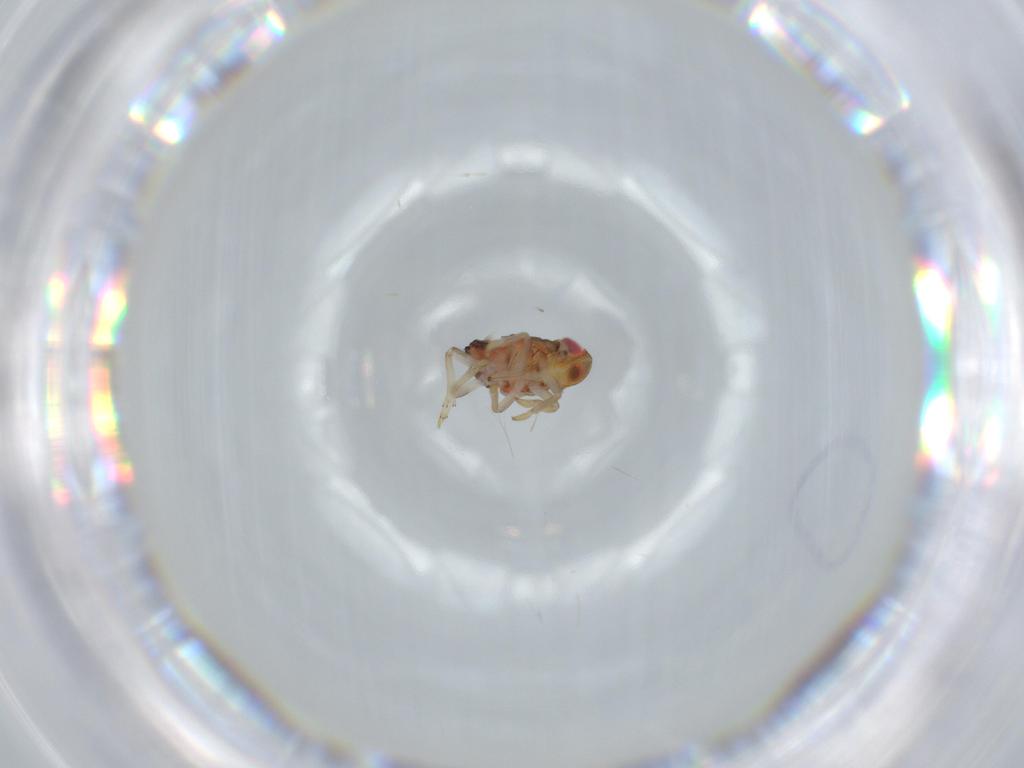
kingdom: Animalia
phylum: Arthropoda
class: Insecta
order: Hemiptera
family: Issidae
